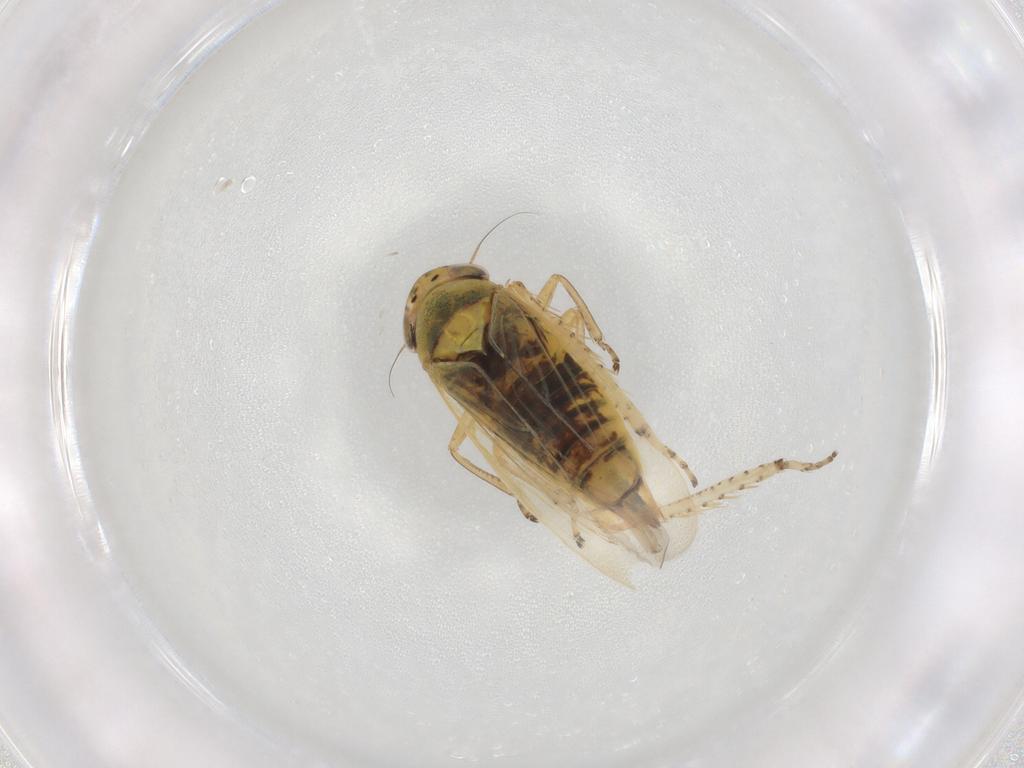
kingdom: Animalia
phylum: Arthropoda
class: Insecta
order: Hemiptera
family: Cicadellidae
